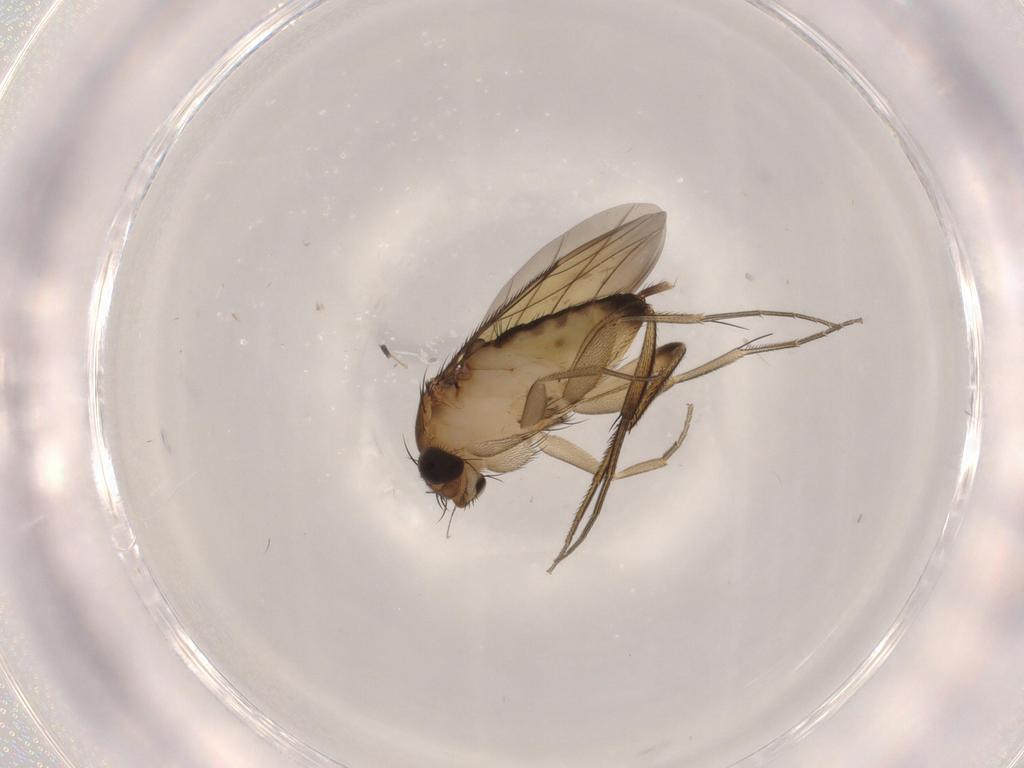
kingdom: Animalia
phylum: Arthropoda
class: Insecta
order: Diptera
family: Phoridae
